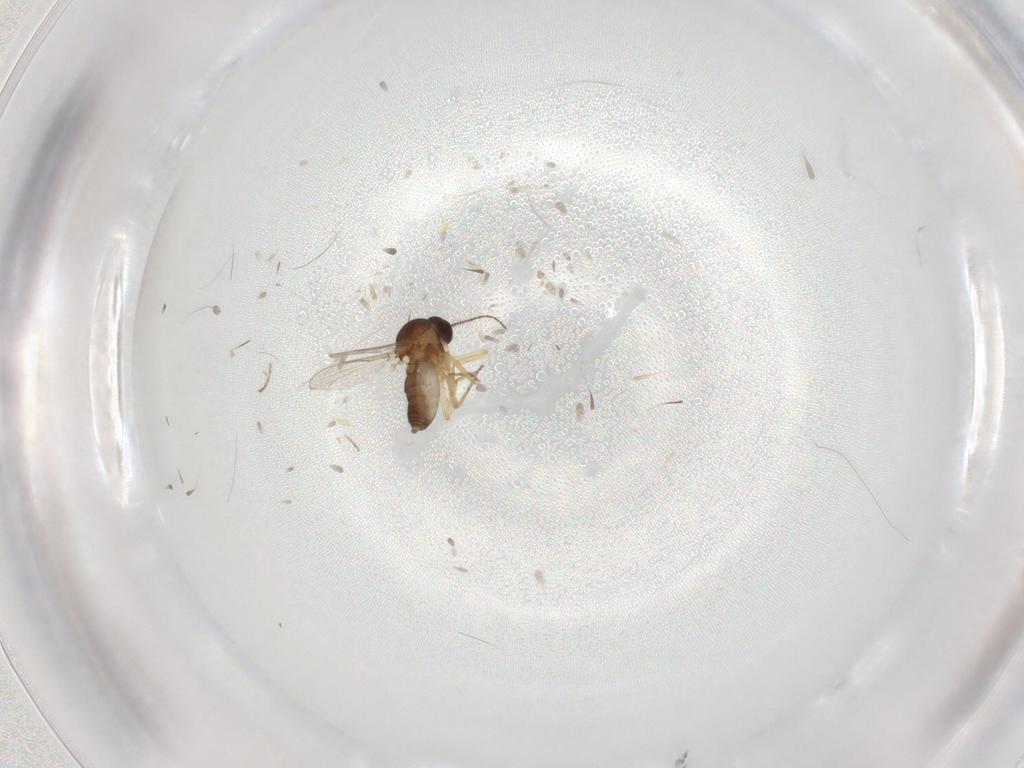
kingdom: Animalia
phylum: Arthropoda
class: Insecta
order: Diptera
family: Ceratopogonidae
